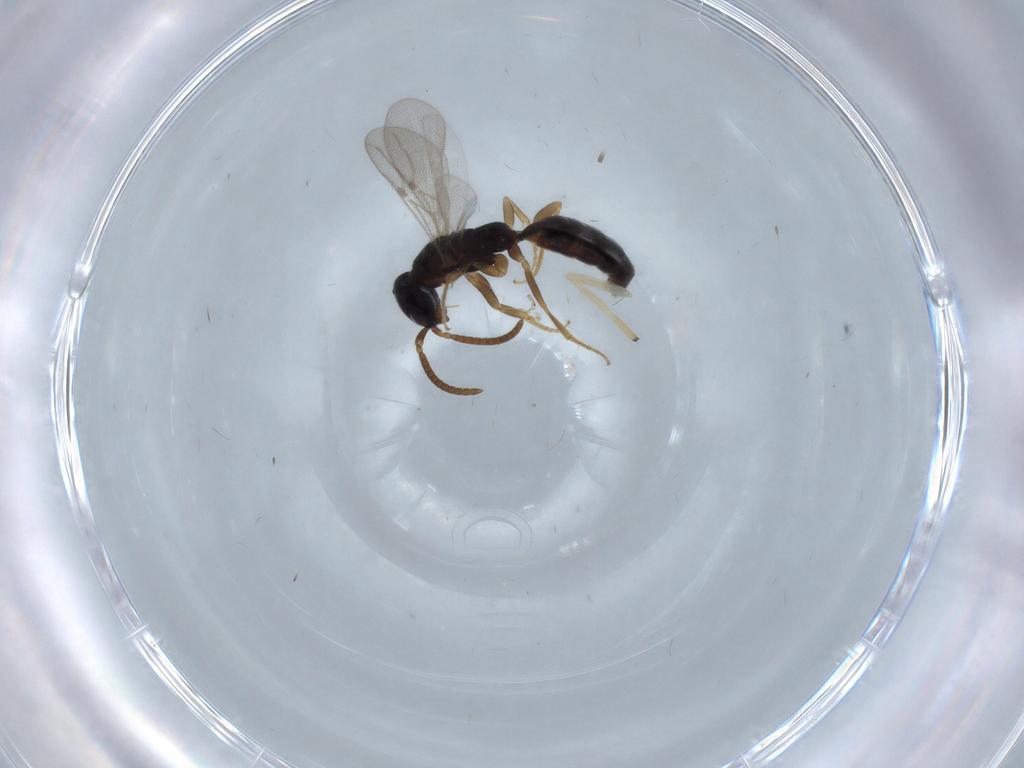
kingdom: Animalia
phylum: Arthropoda
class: Insecta
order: Hymenoptera
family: Bethylidae
